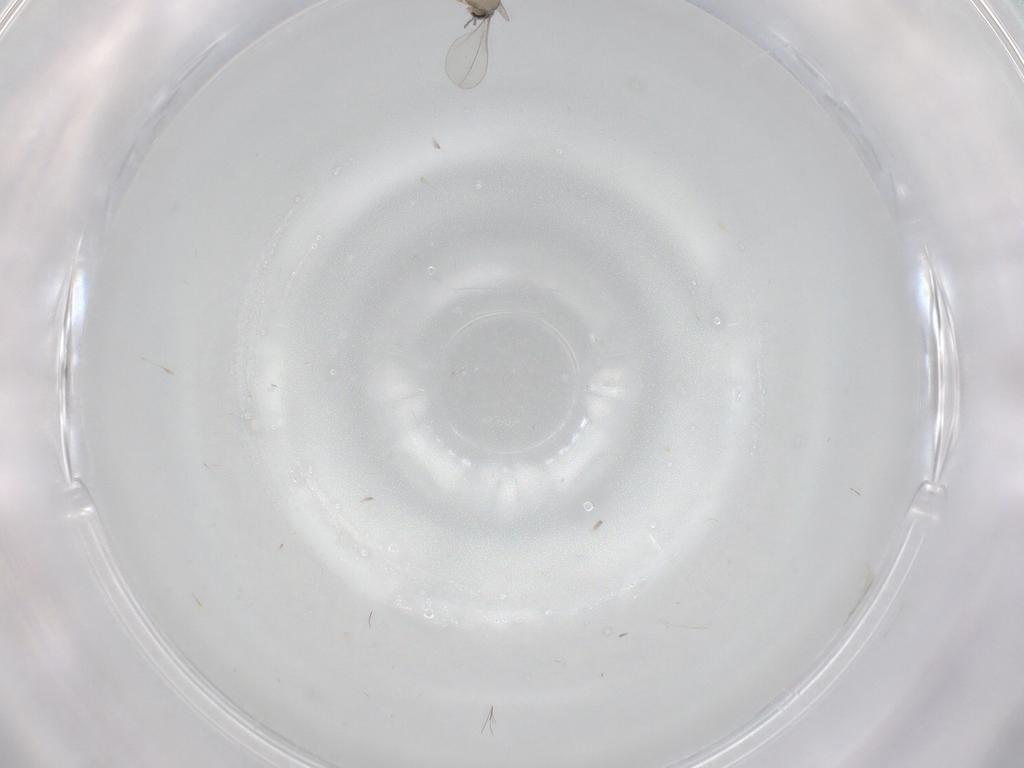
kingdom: Animalia
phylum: Arthropoda
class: Insecta
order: Diptera
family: Cecidomyiidae
